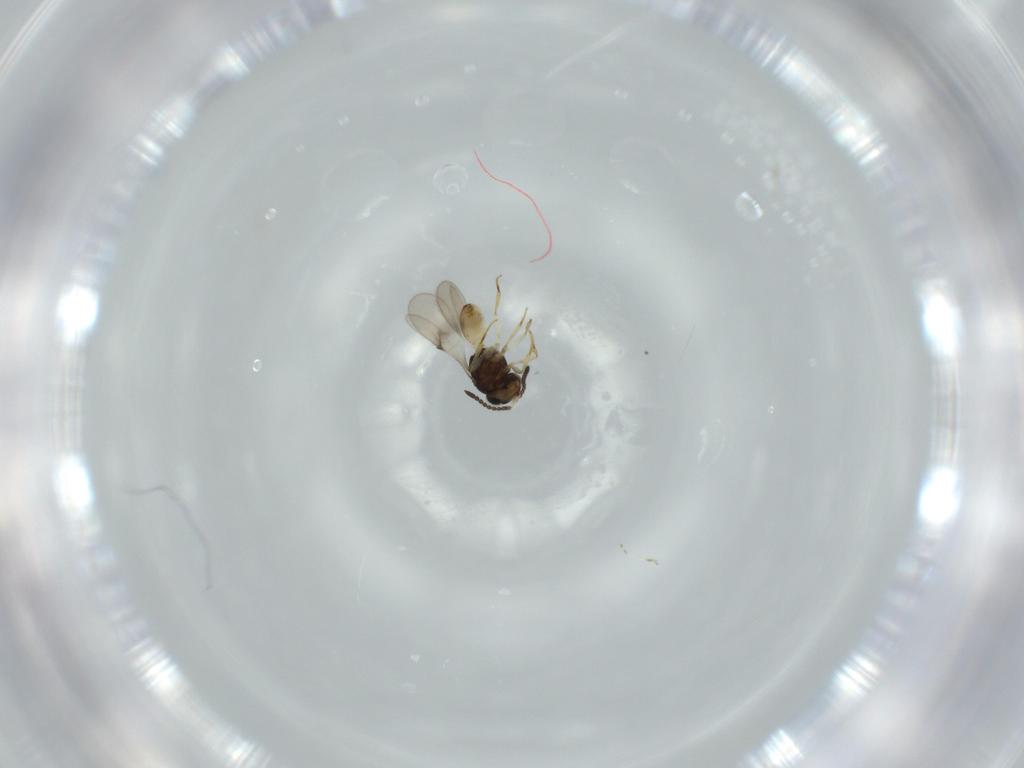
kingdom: Animalia
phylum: Arthropoda
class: Insecta
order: Hymenoptera
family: Scelionidae
